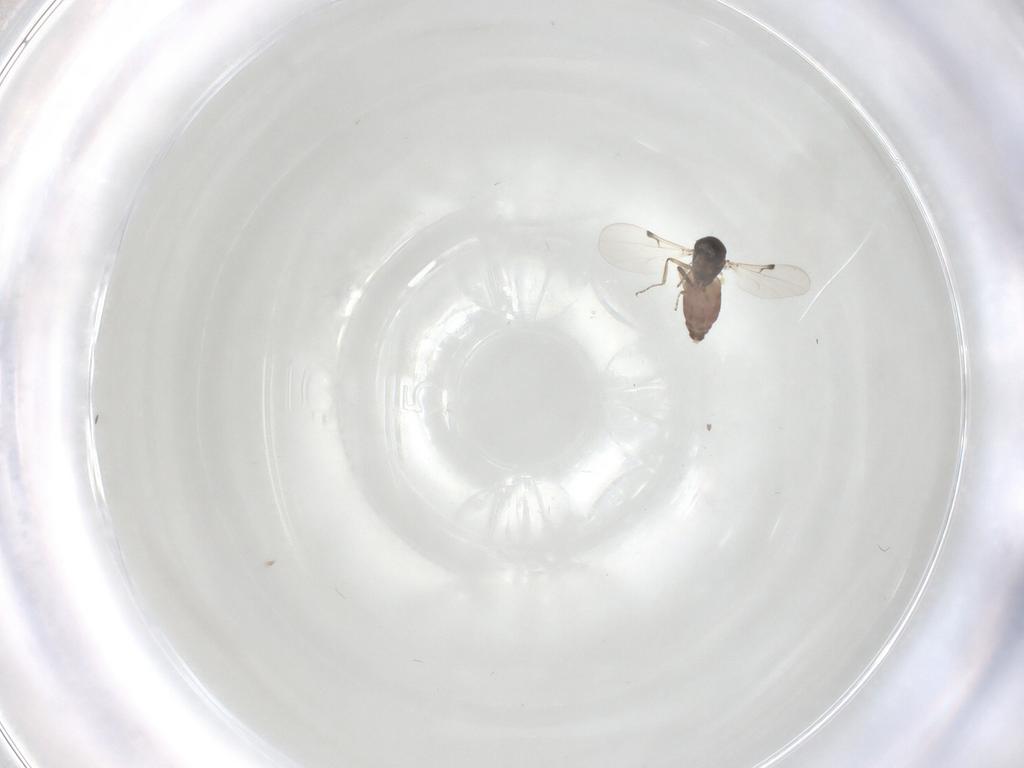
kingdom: Animalia
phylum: Arthropoda
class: Insecta
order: Diptera
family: Ceratopogonidae
